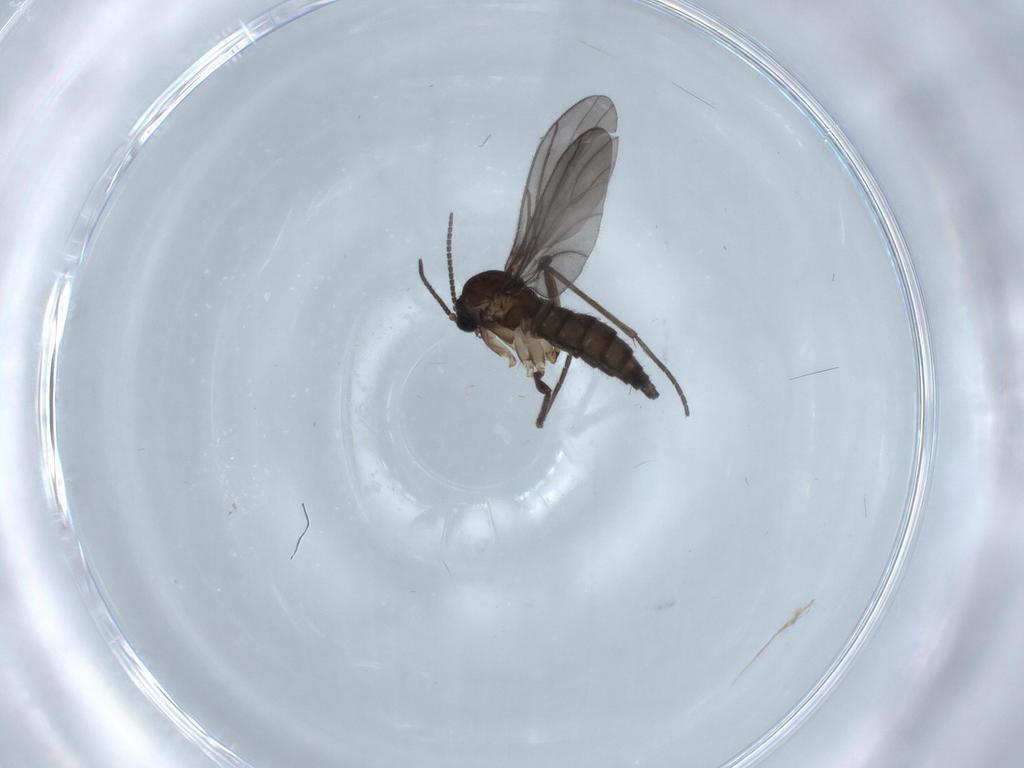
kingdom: Animalia
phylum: Arthropoda
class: Insecta
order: Diptera
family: Sciaridae
